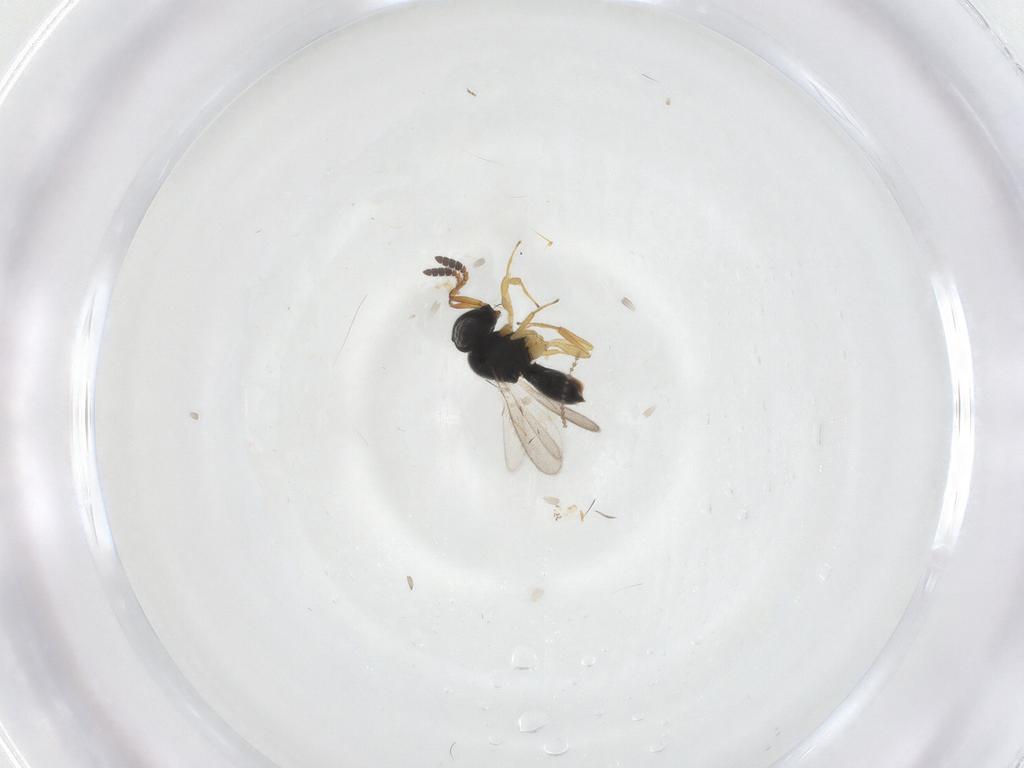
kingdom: Animalia
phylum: Arthropoda
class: Insecta
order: Hymenoptera
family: Scelionidae
